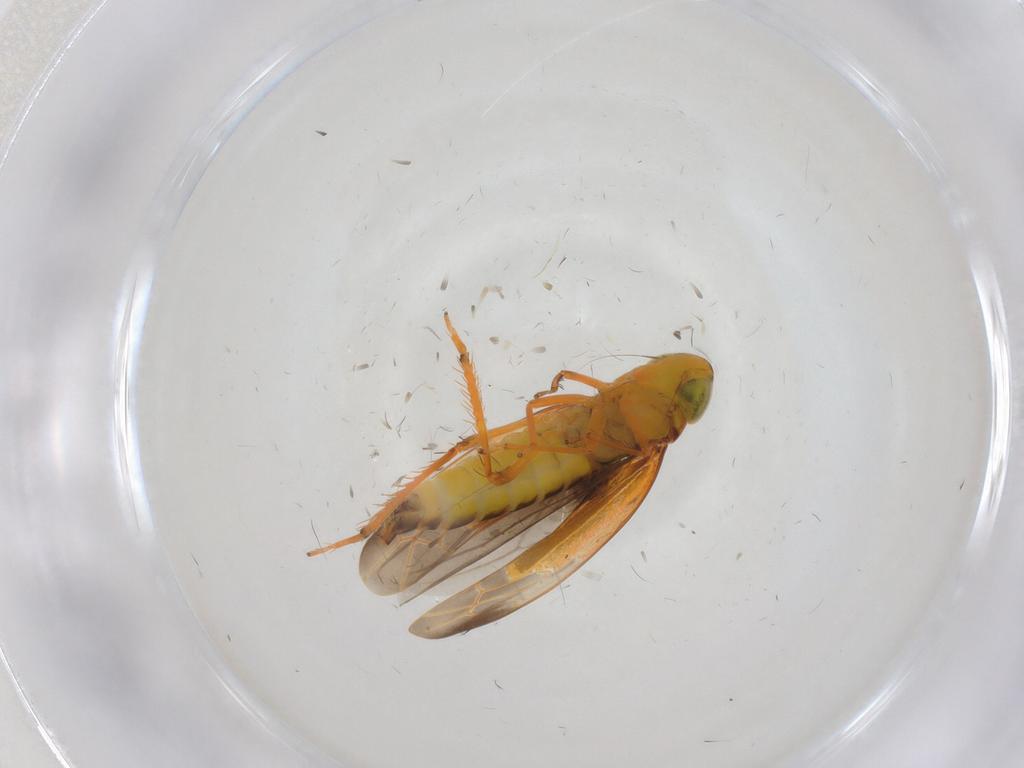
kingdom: Animalia
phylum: Arthropoda
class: Insecta
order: Hemiptera
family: Cicadellidae
